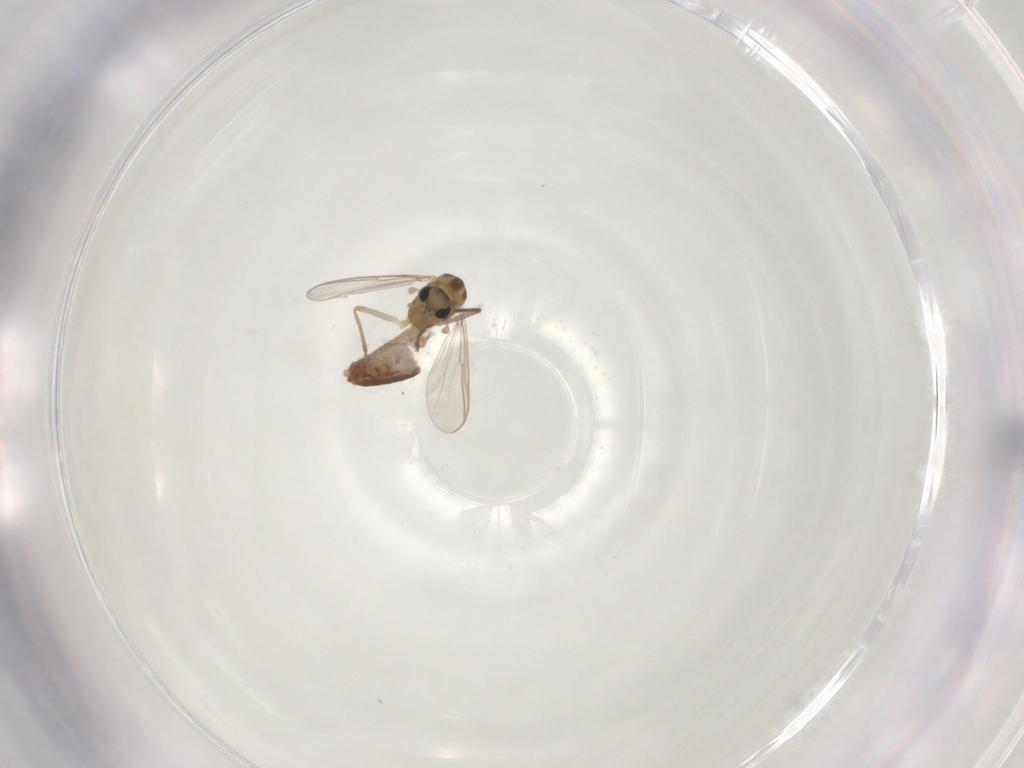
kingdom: Animalia
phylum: Arthropoda
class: Insecta
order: Diptera
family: Chironomidae
